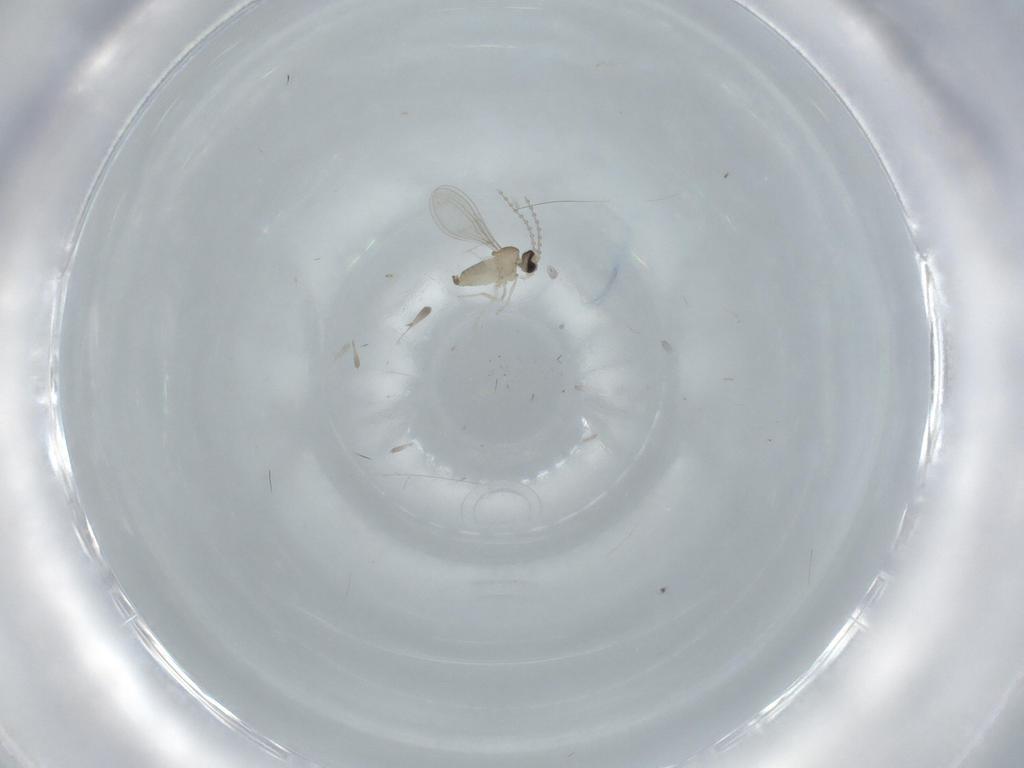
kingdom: Animalia
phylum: Arthropoda
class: Insecta
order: Diptera
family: Cecidomyiidae
